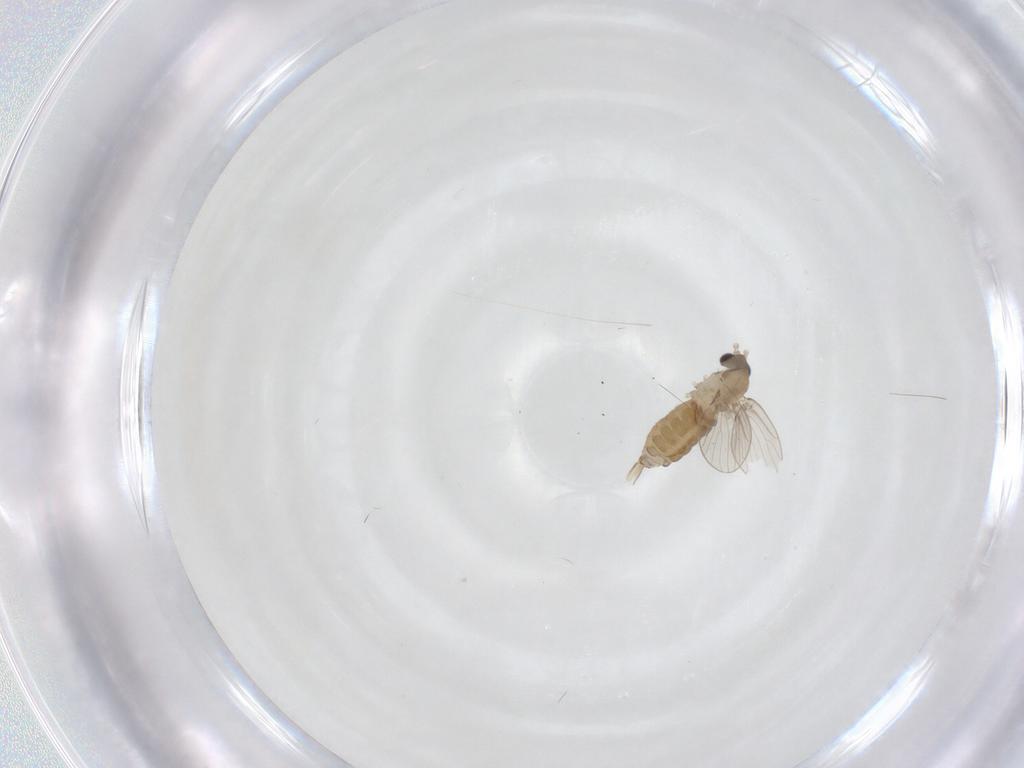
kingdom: Animalia
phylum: Arthropoda
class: Insecta
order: Diptera
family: Psychodidae
